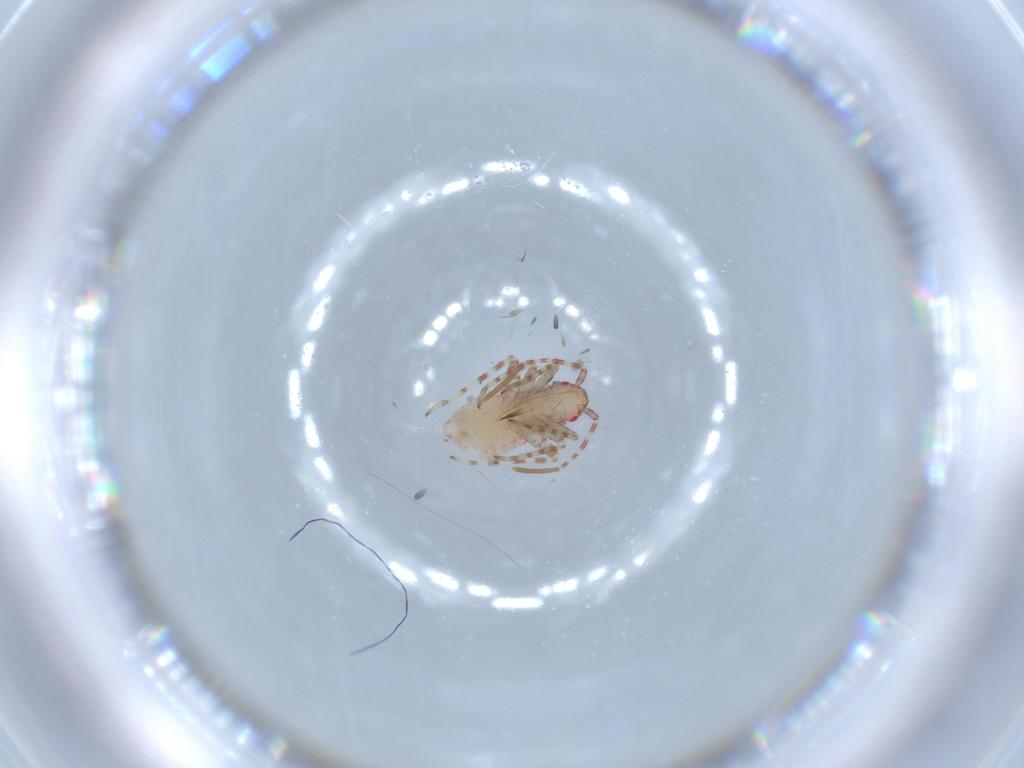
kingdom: Animalia
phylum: Arthropoda
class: Insecta
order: Hemiptera
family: Miridae
